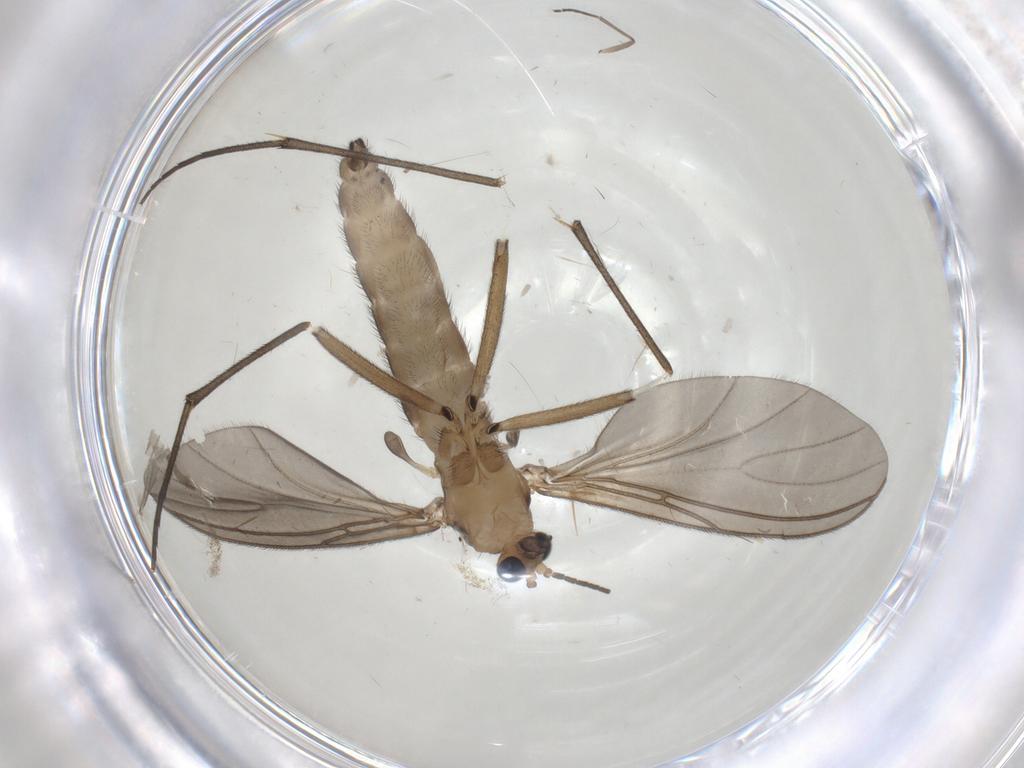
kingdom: Animalia
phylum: Arthropoda
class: Insecta
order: Diptera
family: Sciaridae
